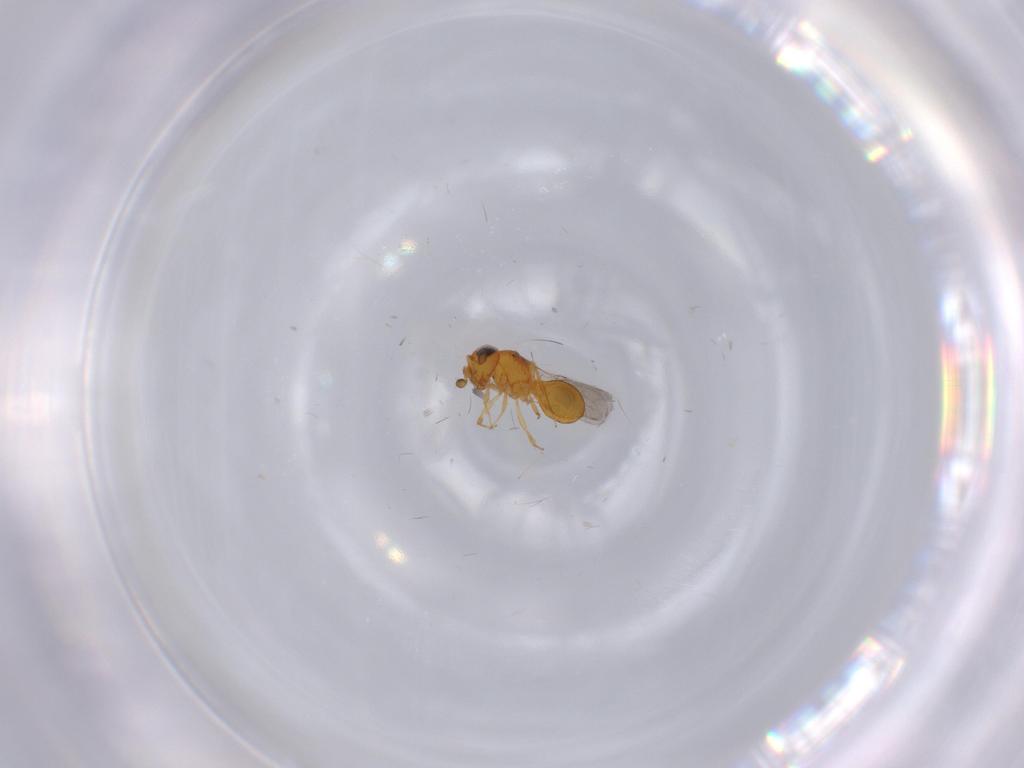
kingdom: Animalia
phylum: Arthropoda
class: Insecta
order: Hymenoptera
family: Scelionidae
